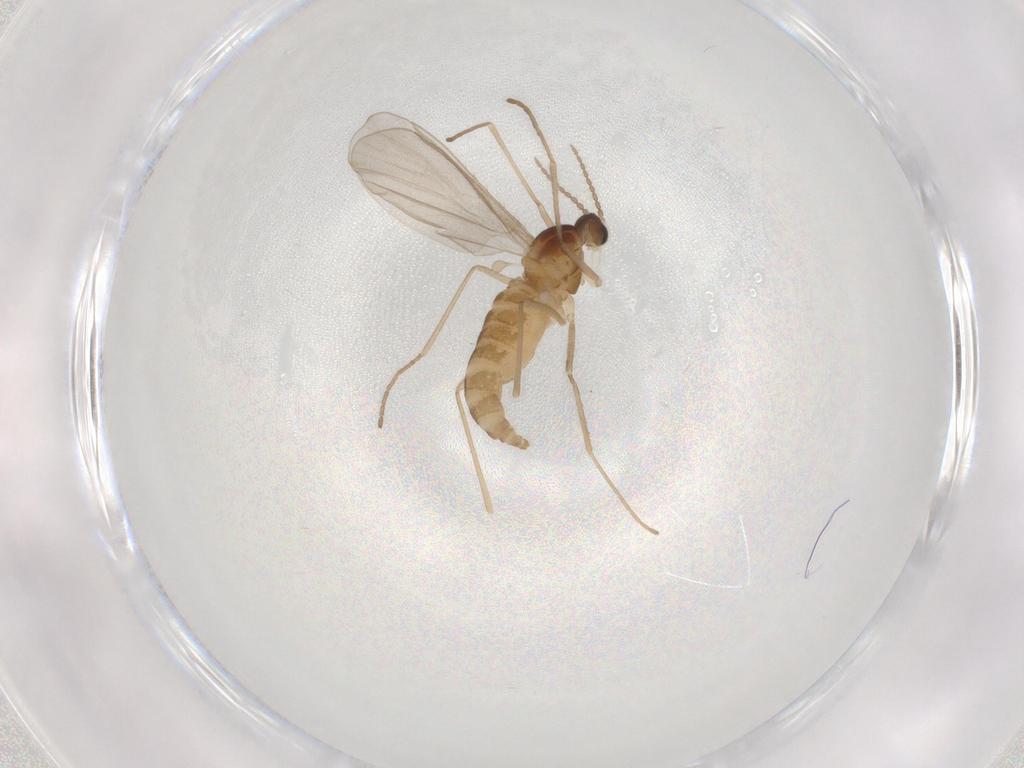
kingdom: Animalia
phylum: Arthropoda
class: Insecta
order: Diptera
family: Cecidomyiidae
